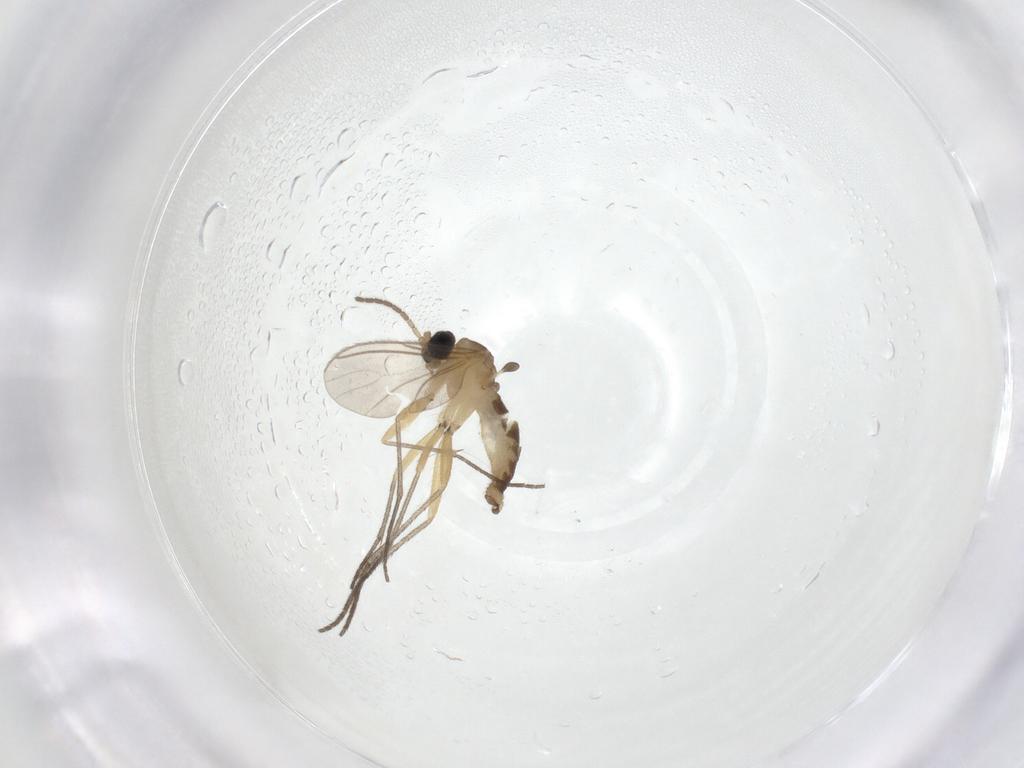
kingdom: Animalia
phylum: Arthropoda
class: Insecta
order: Diptera
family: Sciaridae
